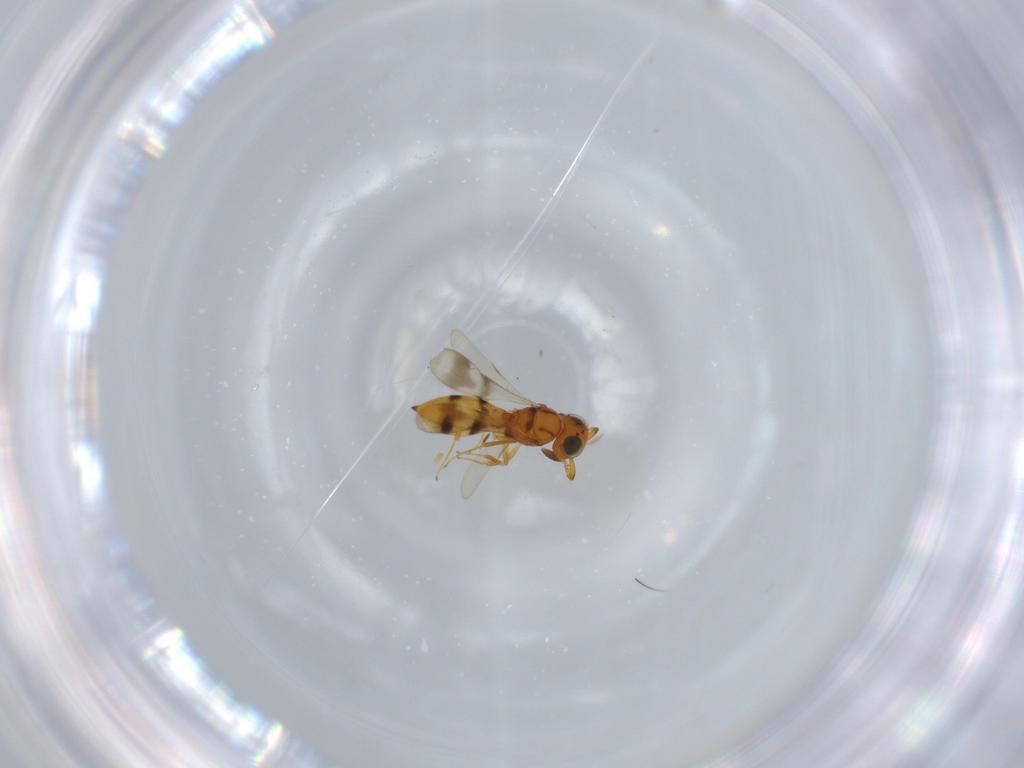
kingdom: Animalia
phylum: Arthropoda
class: Insecta
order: Hymenoptera
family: Scelionidae
